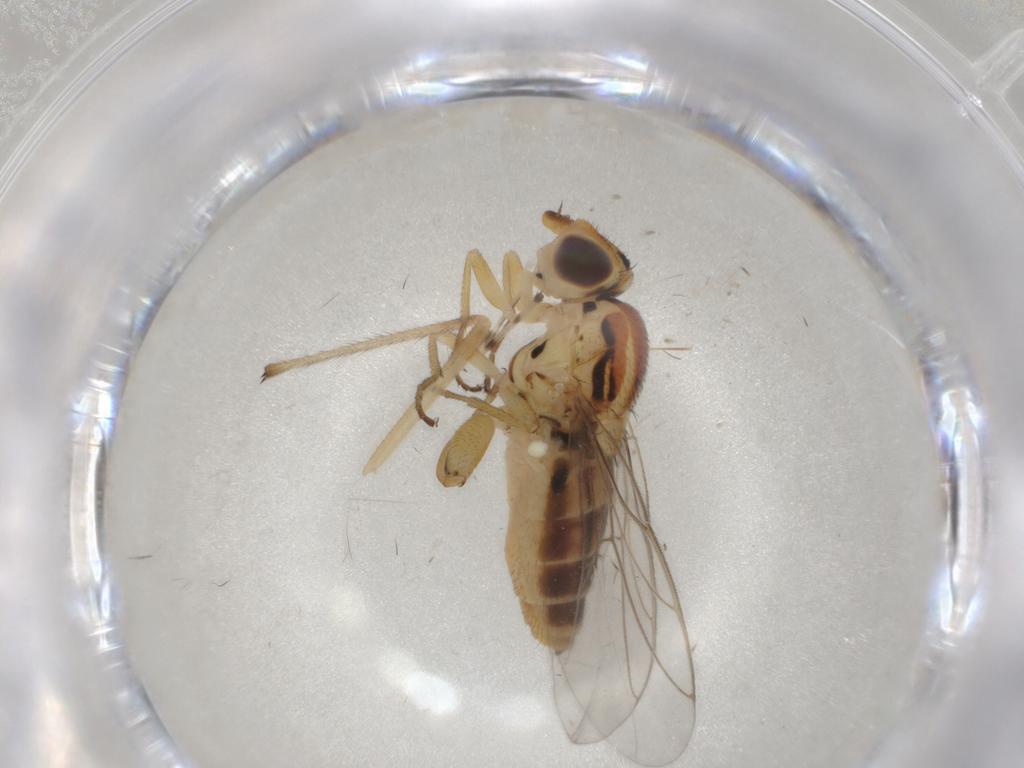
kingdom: Animalia
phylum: Arthropoda
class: Insecta
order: Diptera
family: Chloropidae
